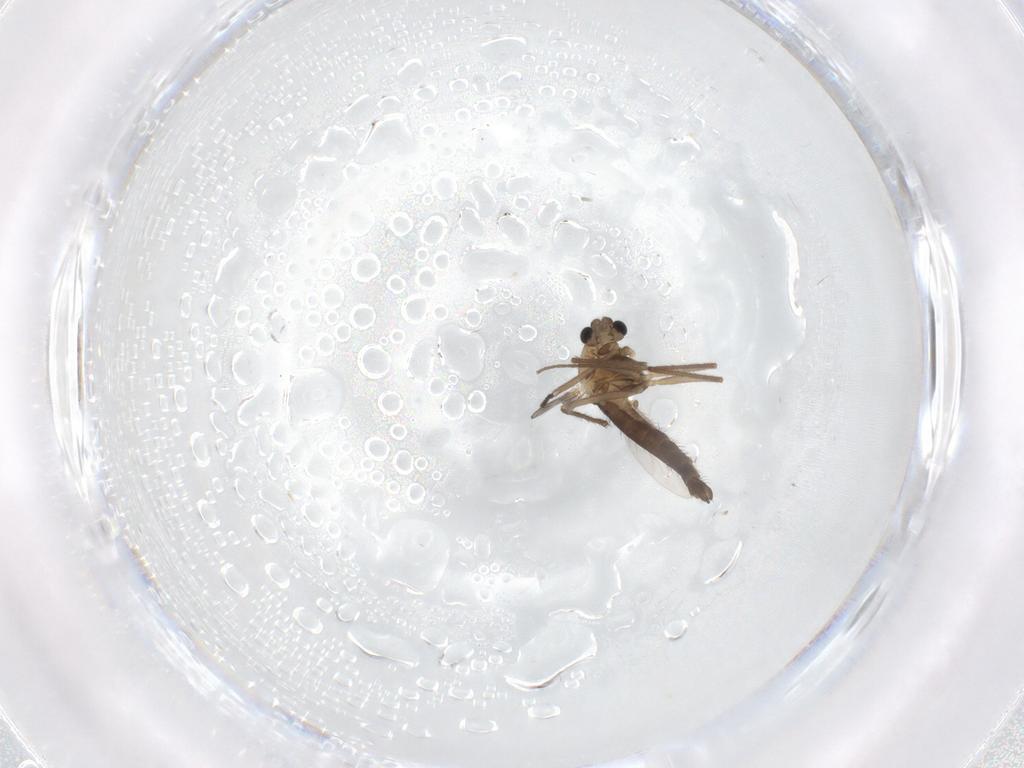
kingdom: Animalia
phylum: Arthropoda
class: Insecta
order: Diptera
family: Chironomidae
